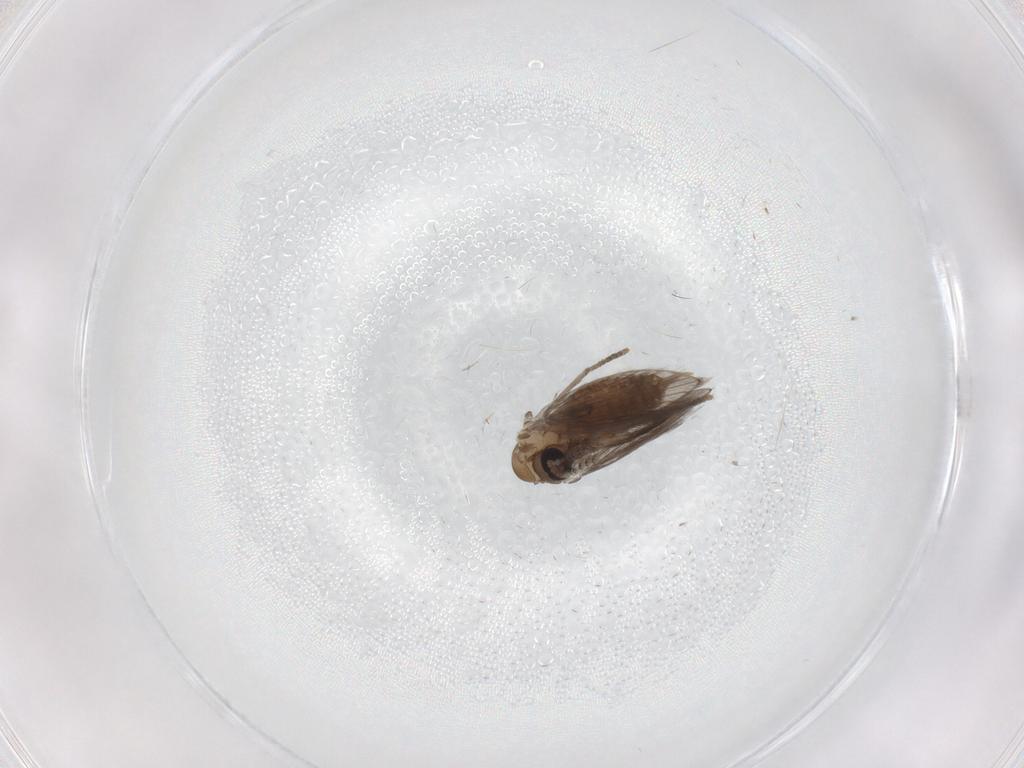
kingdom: Animalia
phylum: Arthropoda
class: Insecta
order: Diptera
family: Psychodidae
